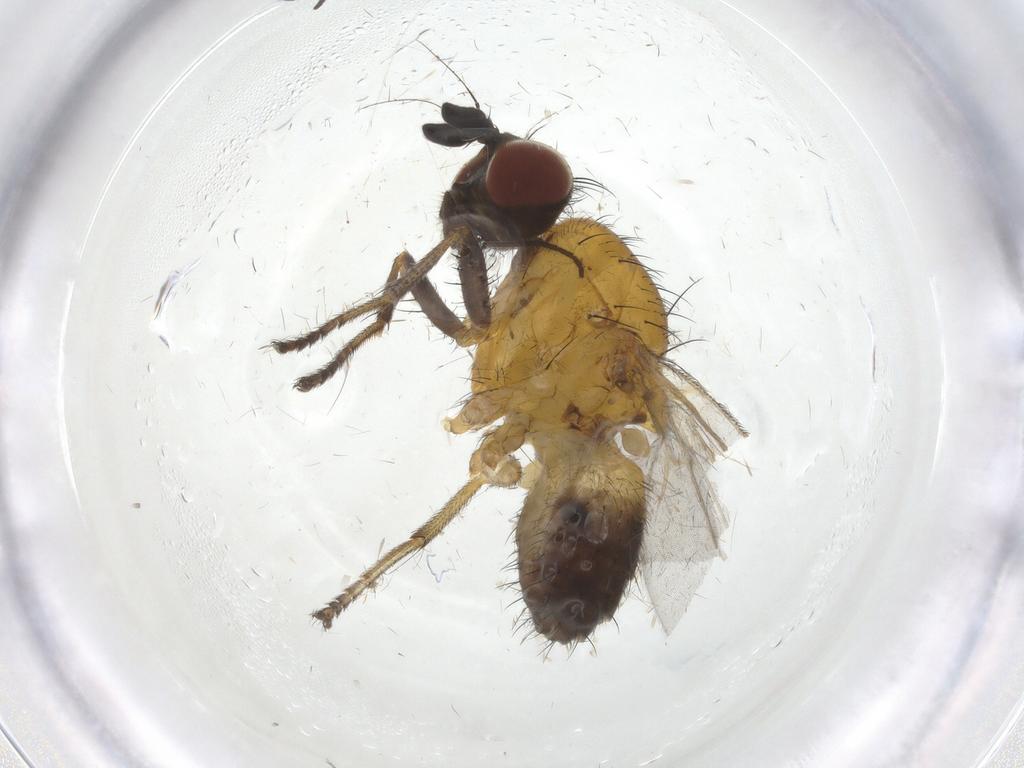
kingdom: Animalia
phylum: Arthropoda
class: Insecta
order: Diptera
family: Lauxaniidae
